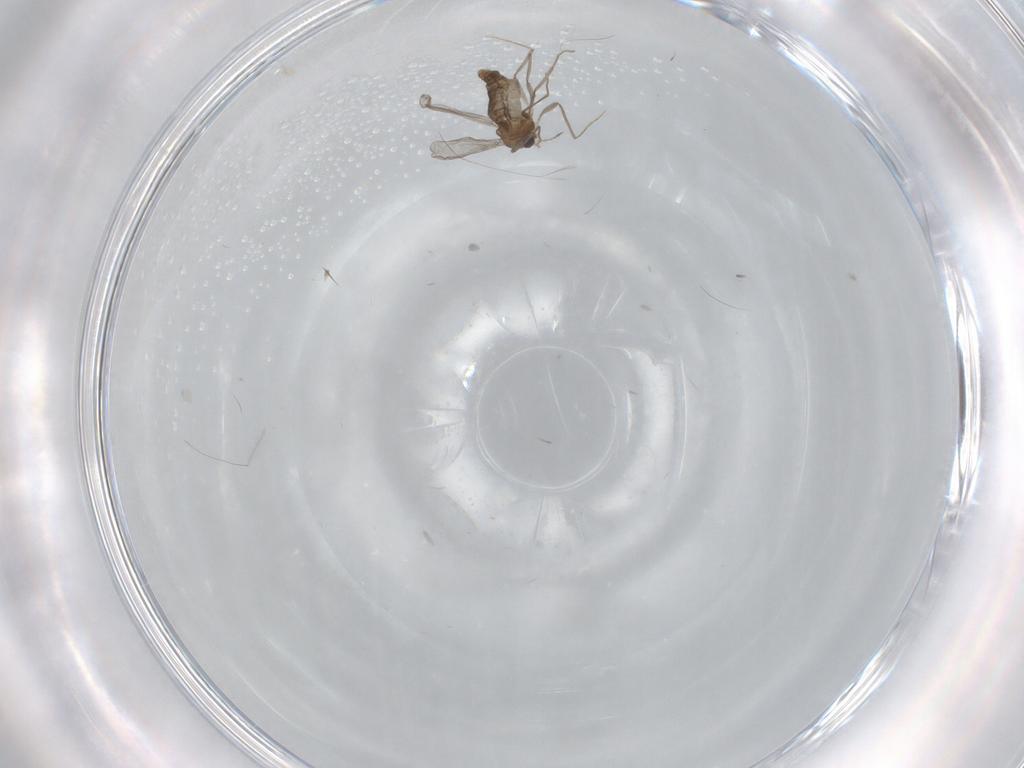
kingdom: Animalia
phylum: Arthropoda
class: Insecta
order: Diptera
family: Chironomidae
